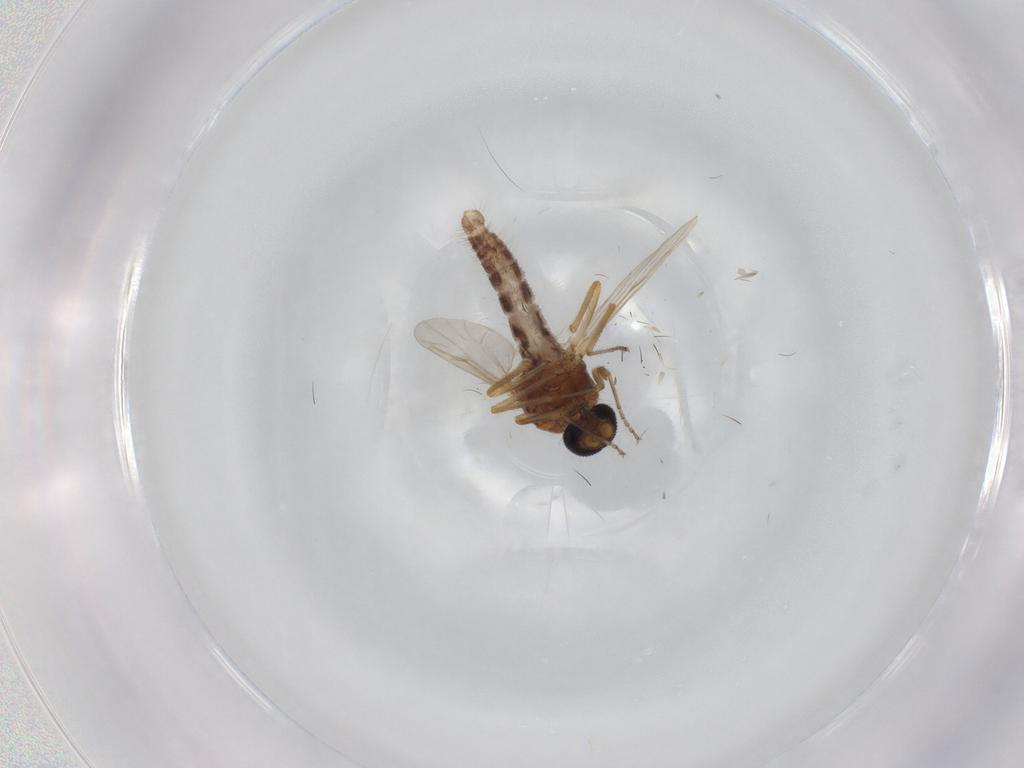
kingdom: Animalia
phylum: Arthropoda
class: Insecta
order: Diptera
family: Ceratopogonidae
